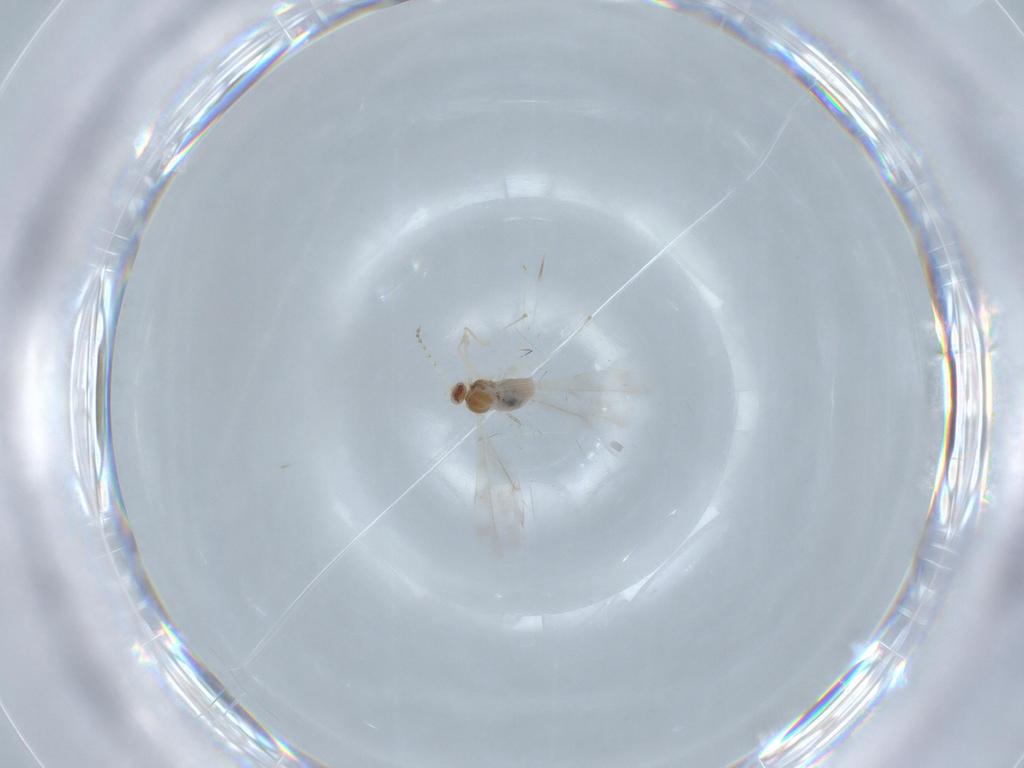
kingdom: Animalia
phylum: Arthropoda
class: Insecta
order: Diptera
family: Cecidomyiidae
